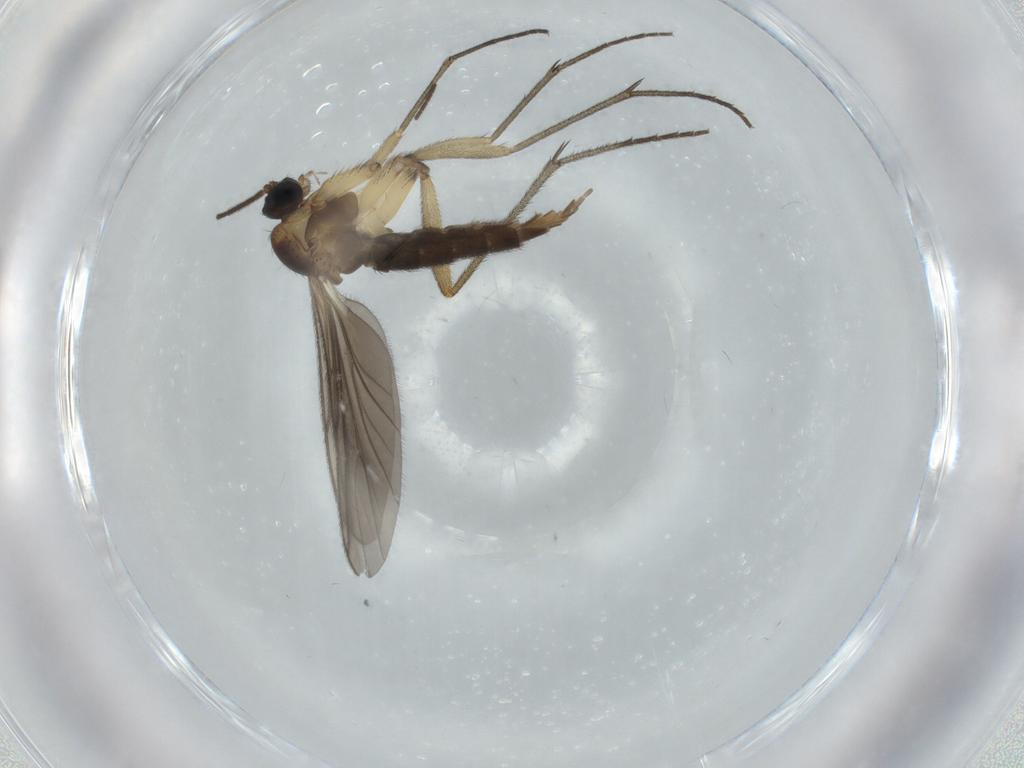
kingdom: Animalia
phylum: Arthropoda
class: Insecta
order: Diptera
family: Sciaridae
